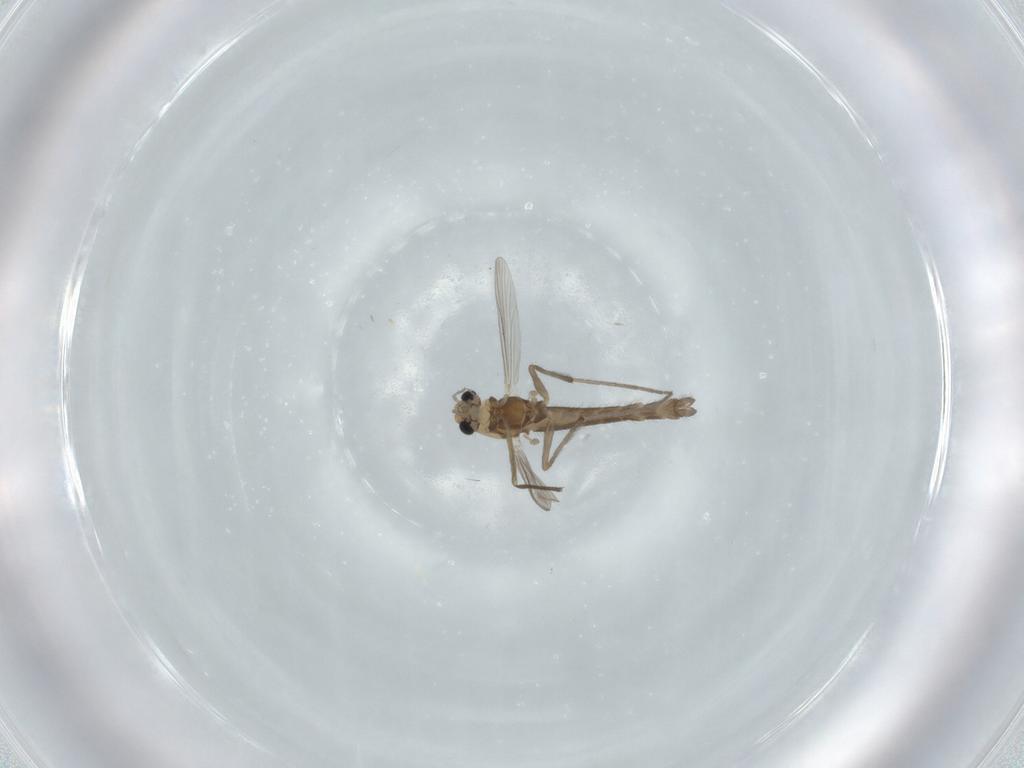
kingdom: Animalia
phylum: Arthropoda
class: Insecta
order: Diptera
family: Chironomidae
